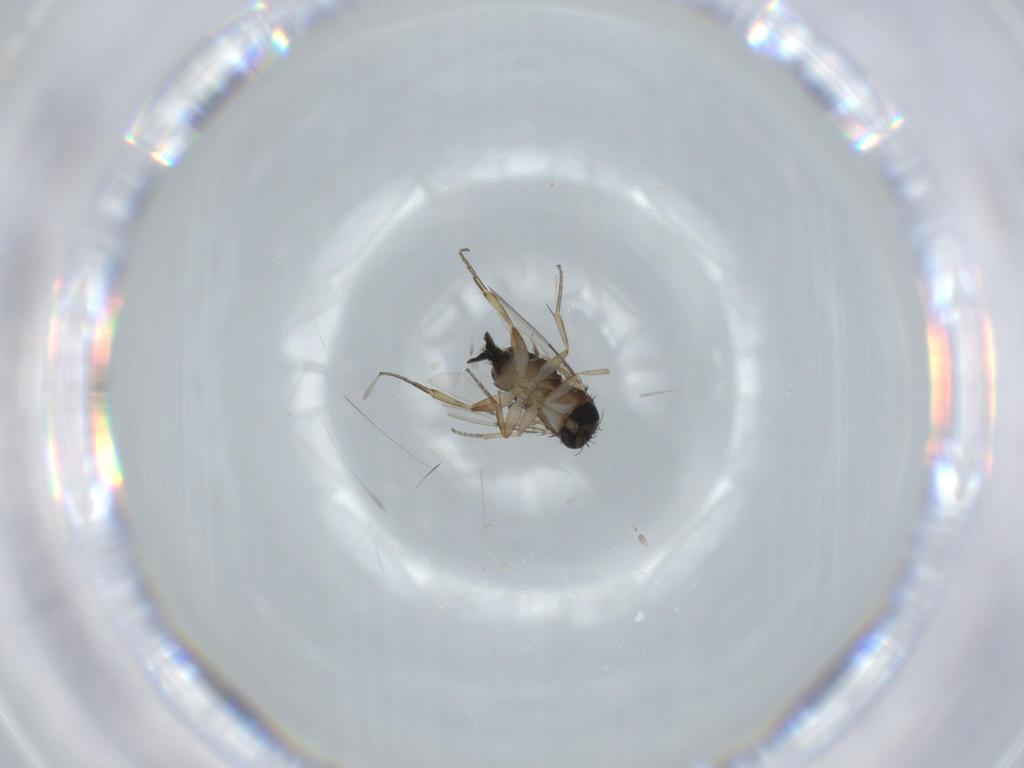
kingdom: Animalia
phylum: Arthropoda
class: Insecta
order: Diptera
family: Phoridae
